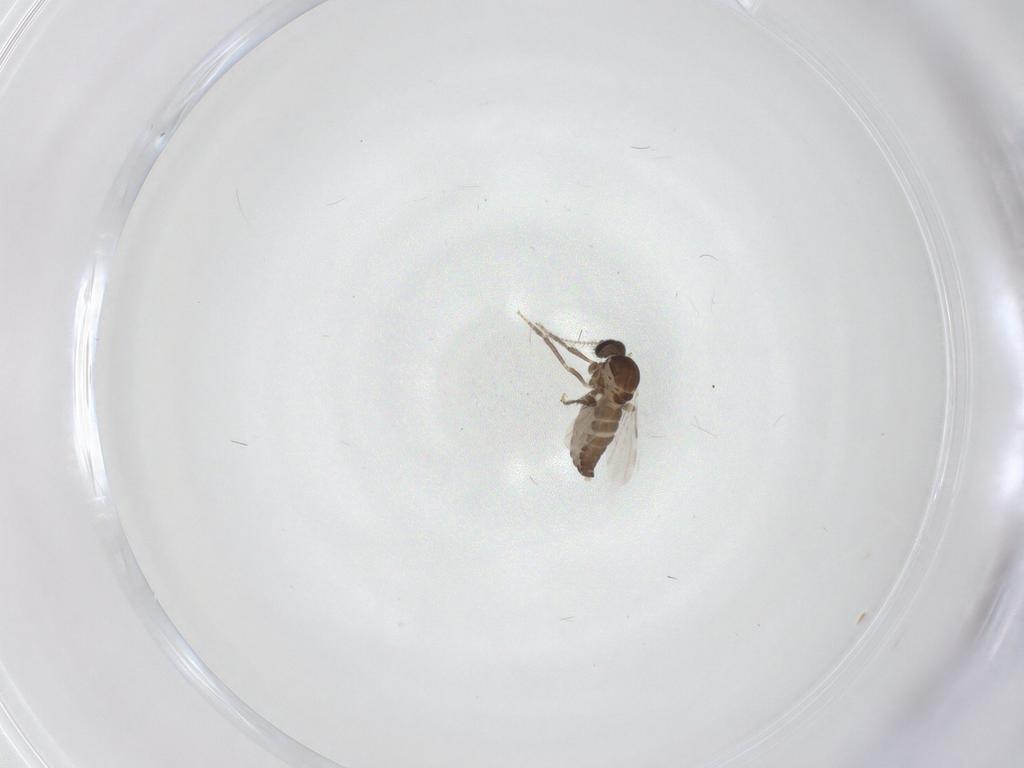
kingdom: Animalia
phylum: Arthropoda
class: Insecta
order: Diptera
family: Ceratopogonidae
